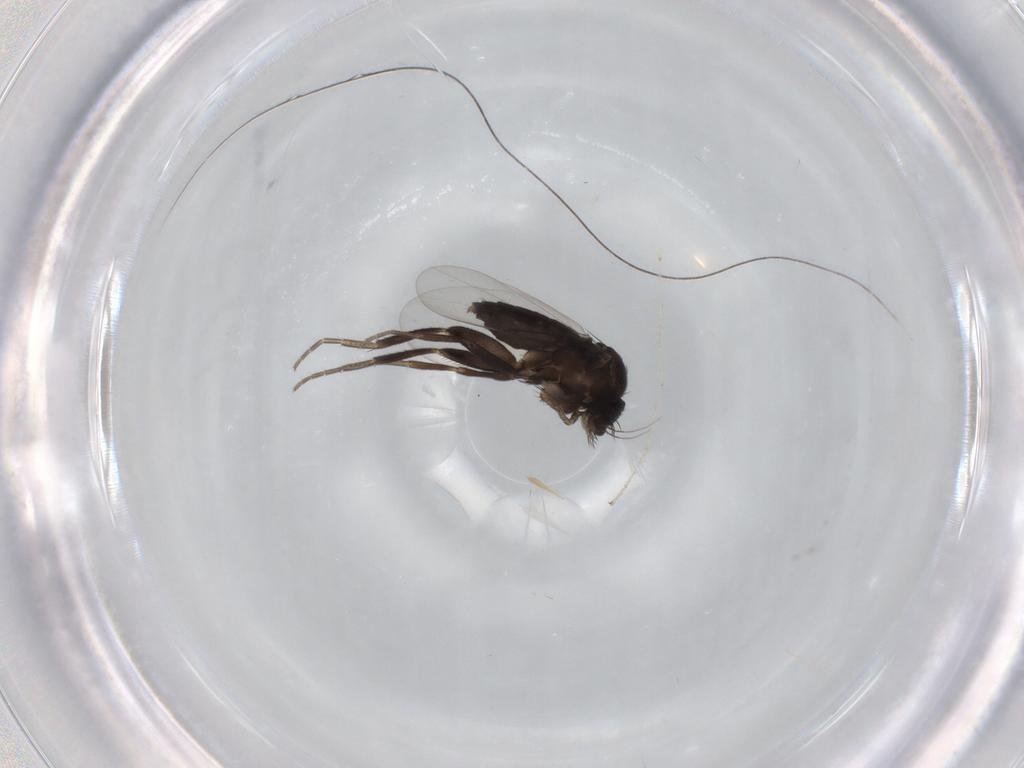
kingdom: Animalia
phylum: Arthropoda
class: Insecta
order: Diptera
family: Phoridae
